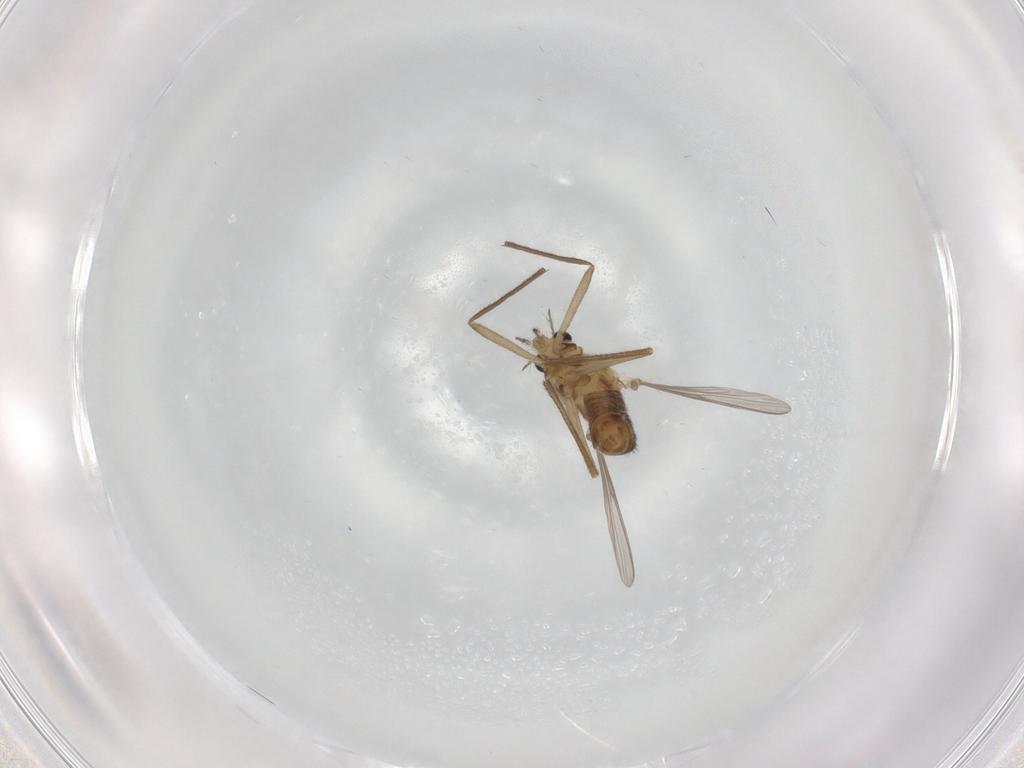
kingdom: Animalia
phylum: Arthropoda
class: Insecta
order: Diptera
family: Chironomidae
